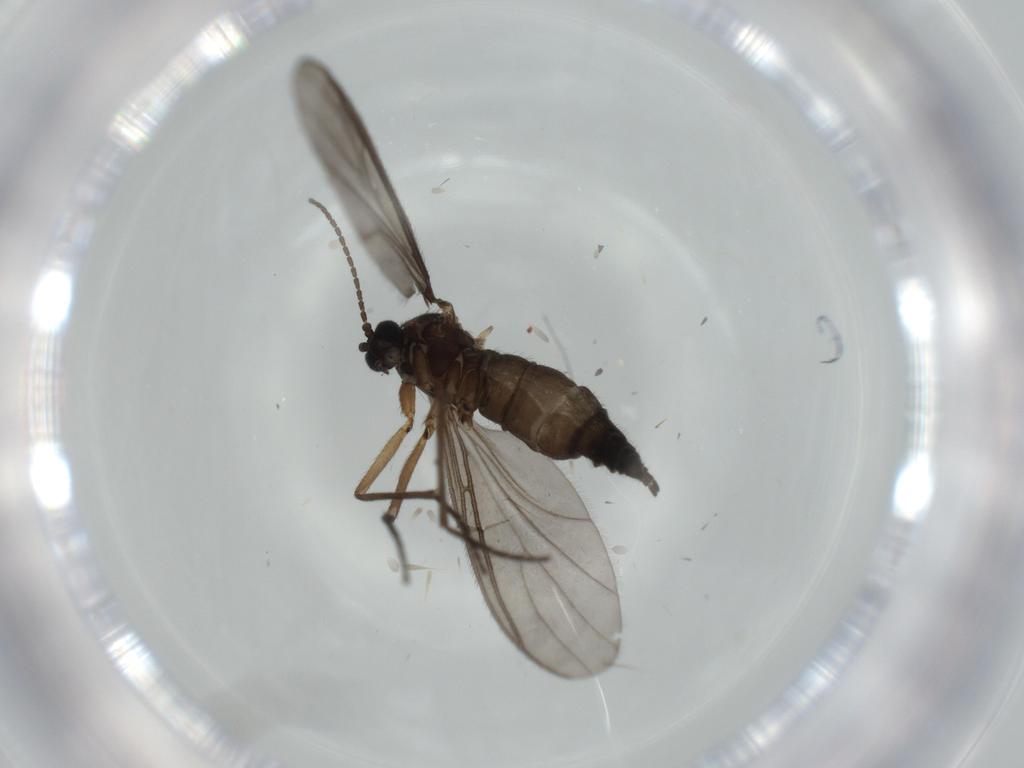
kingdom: Animalia
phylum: Arthropoda
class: Insecta
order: Diptera
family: Sciaridae
